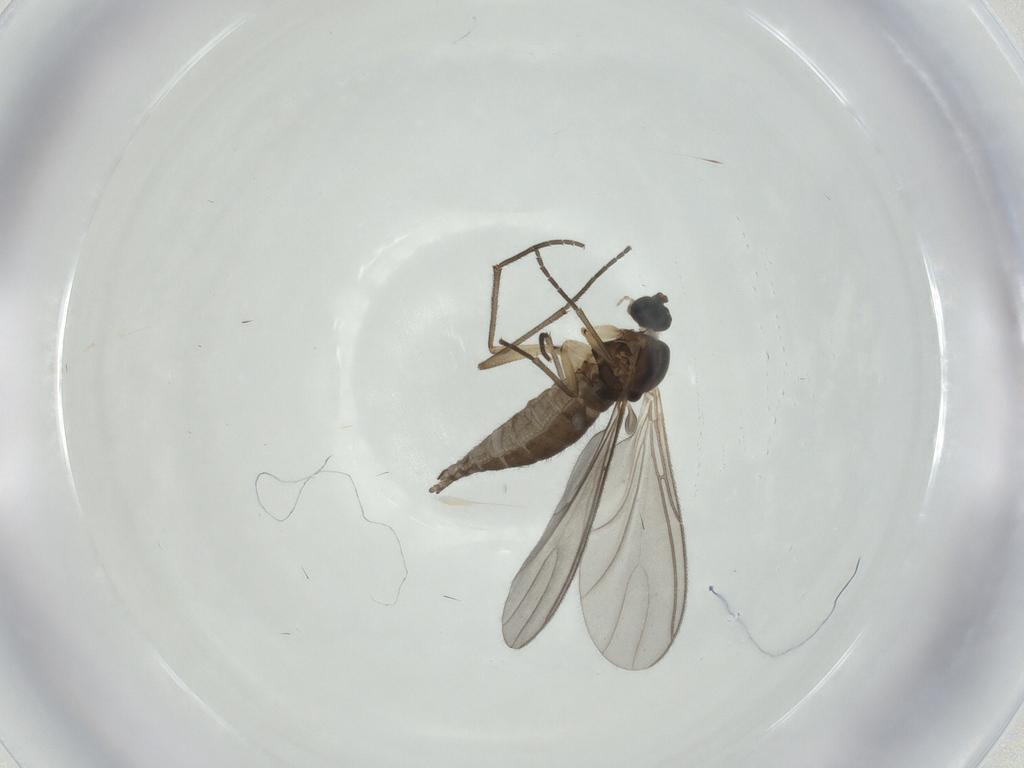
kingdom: Animalia
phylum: Arthropoda
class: Insecta
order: Diptera
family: Sciaridae
